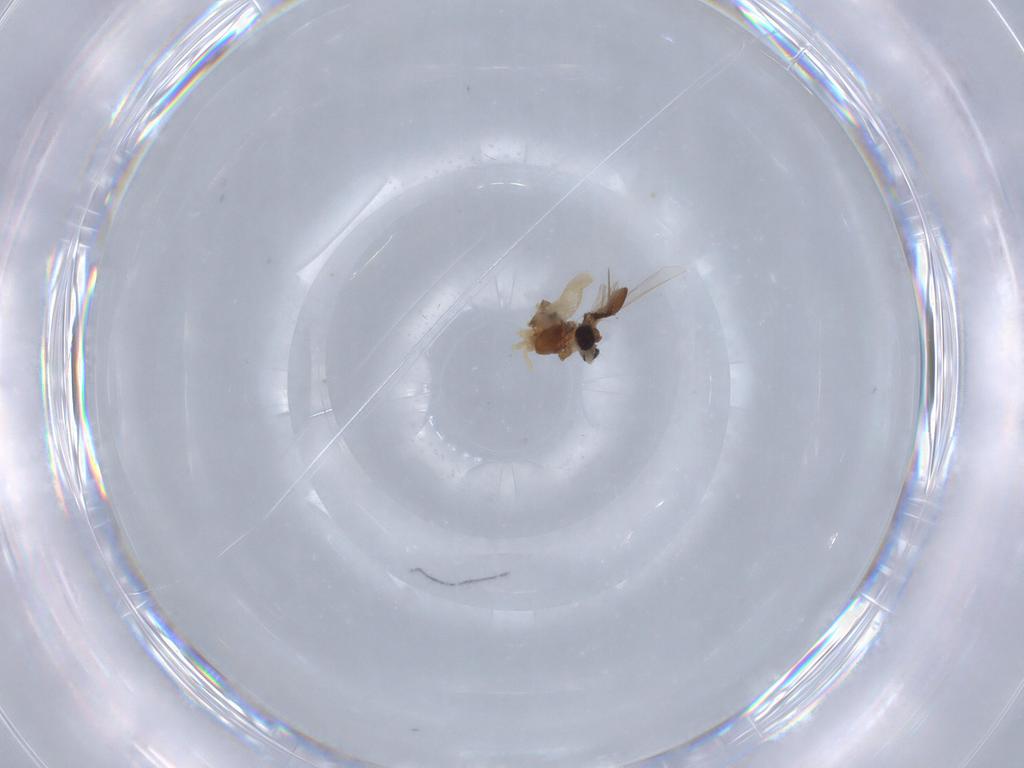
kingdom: Animalia
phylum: Arthropoda
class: Insecta
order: Diptera
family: Chironomidae
